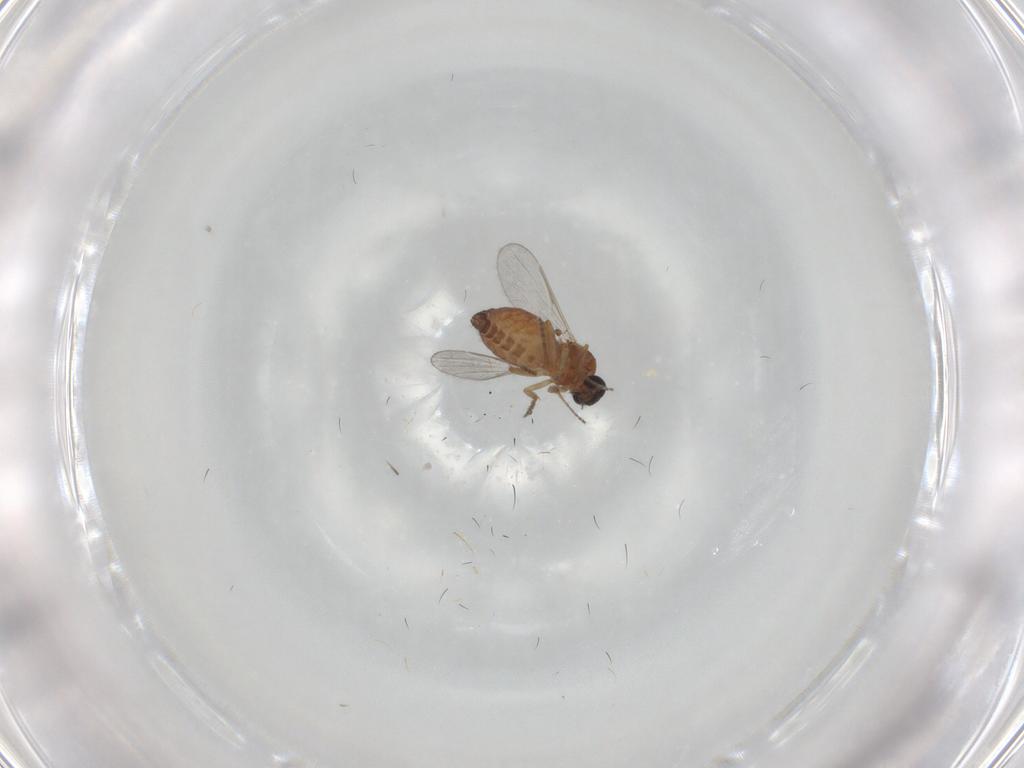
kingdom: Animalia
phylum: Arthropoda
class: Insecta
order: Diptera
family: Ceratopogonidae
